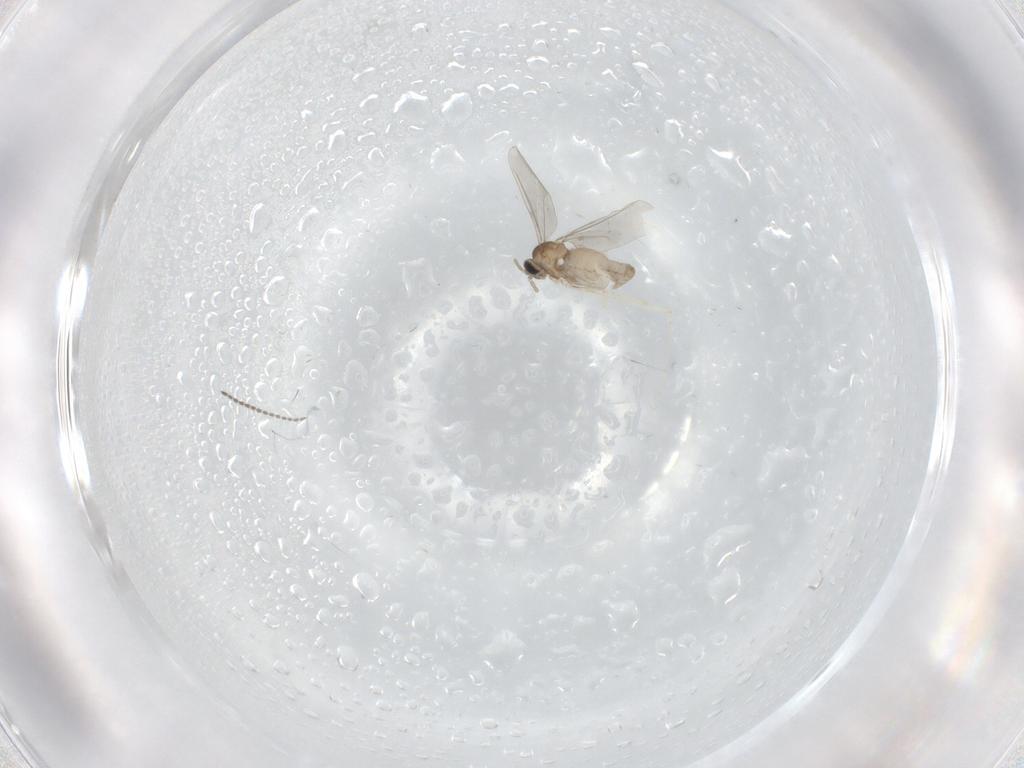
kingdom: Animalia
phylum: Arthropoda
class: Insecta
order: Diptera
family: Cecidomyiidae
